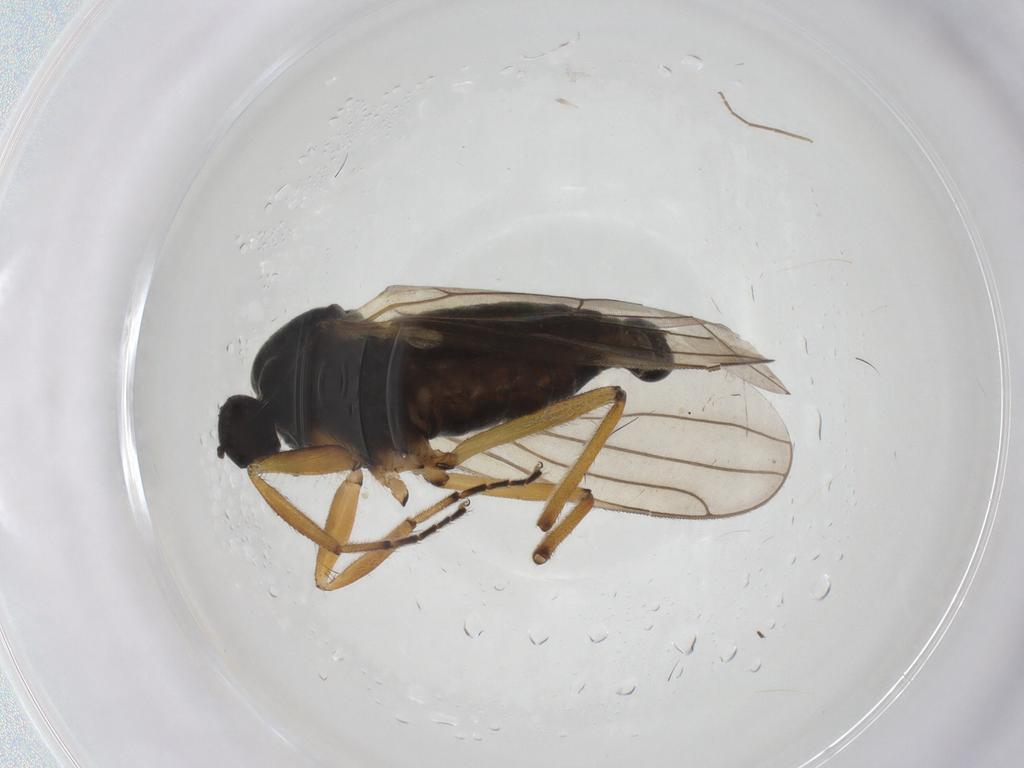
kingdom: Animalia
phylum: Arthropoda
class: Insecta
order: Diptera
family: Hybotidae
